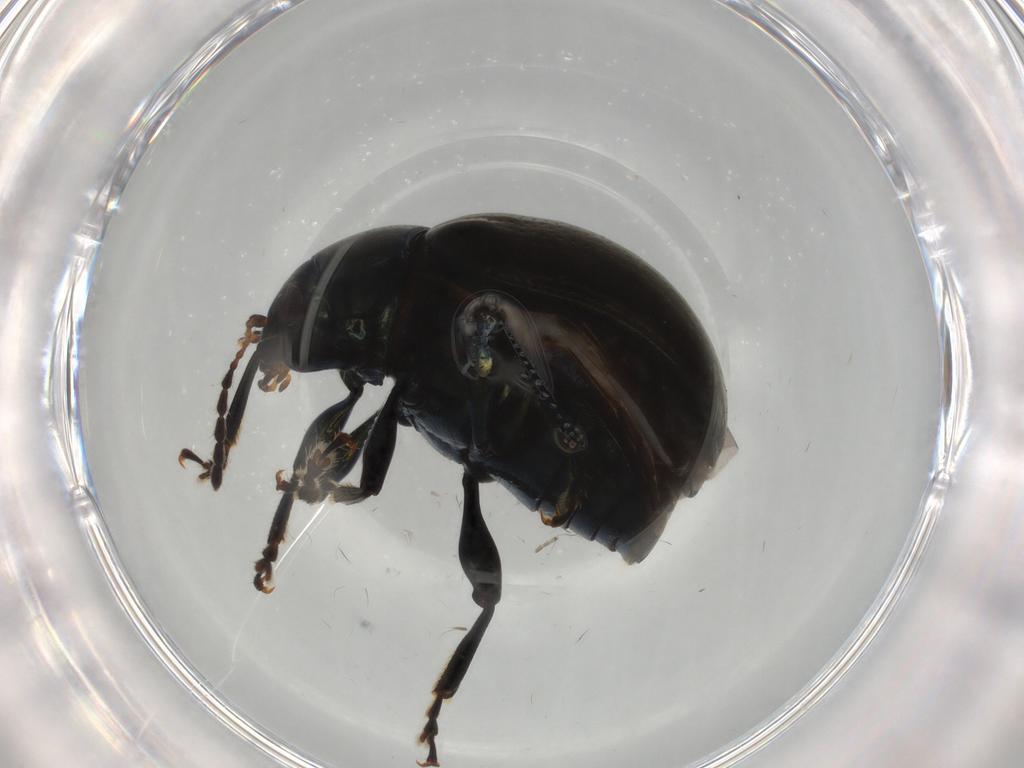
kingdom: Animalia
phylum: Arthropoda
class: Insecta
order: Coleoptera
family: Chrysomelidae
